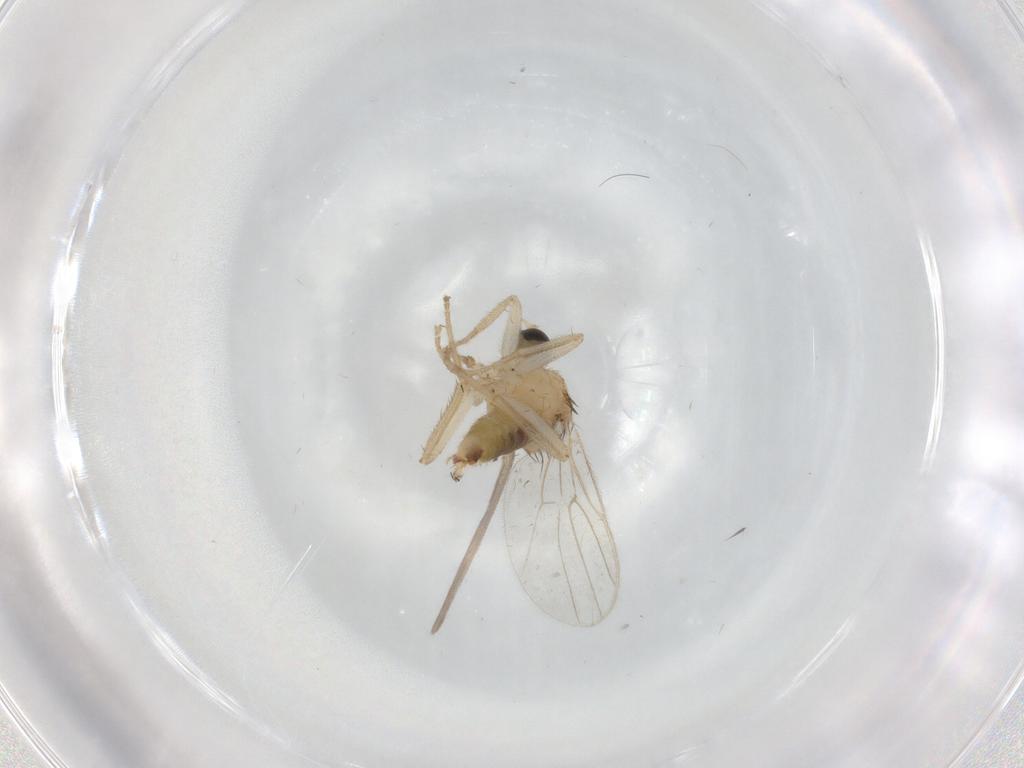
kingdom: Animalia
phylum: Arthropoda
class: Insecta
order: Diptera
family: Hybotidae
